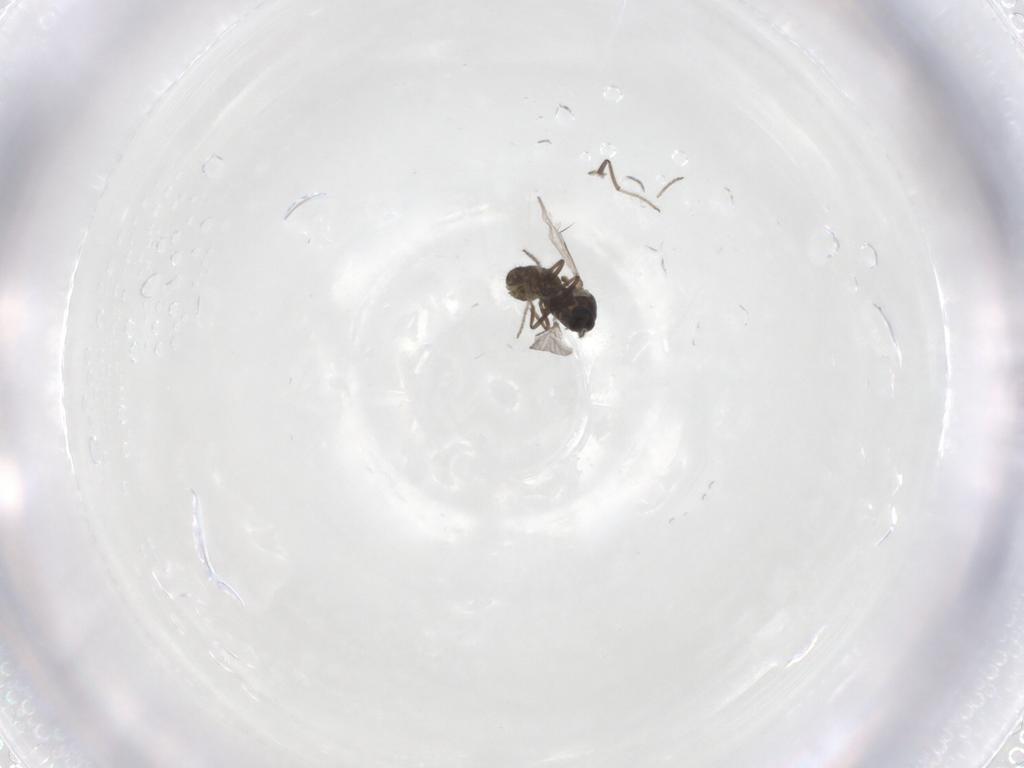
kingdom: Animalia
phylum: Arthropoda
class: Insecta
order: Diptera
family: Ceratopogonidae
